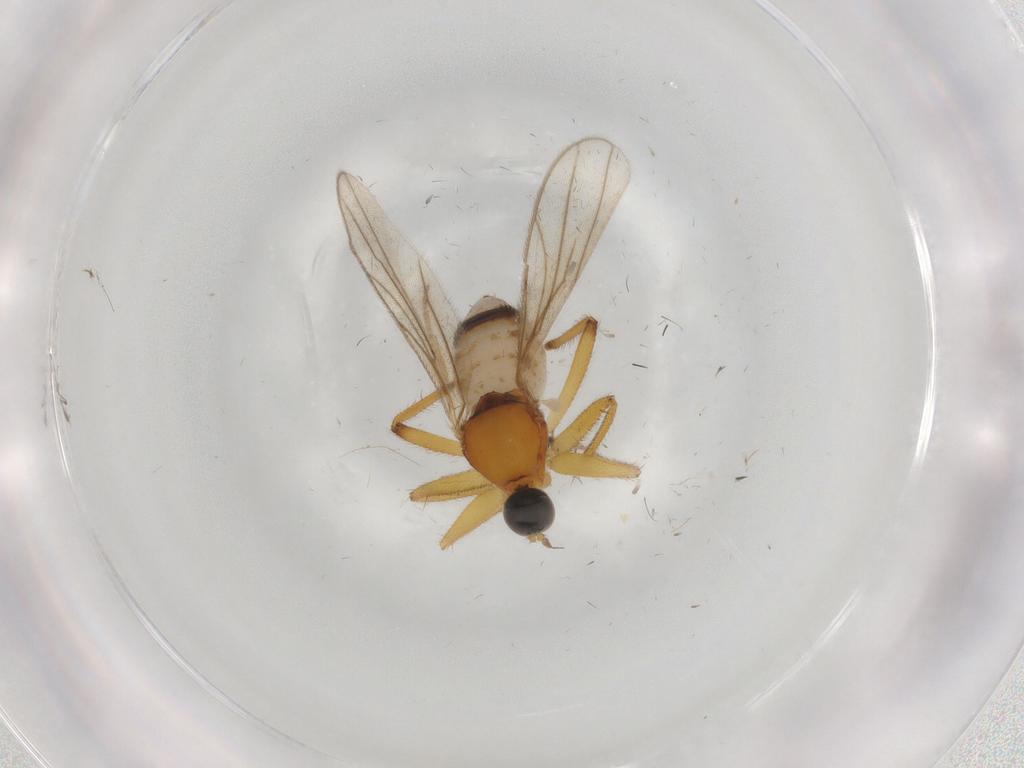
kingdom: Animalia
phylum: Arthropoda
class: Insecta
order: Diptera
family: Hybotidae
